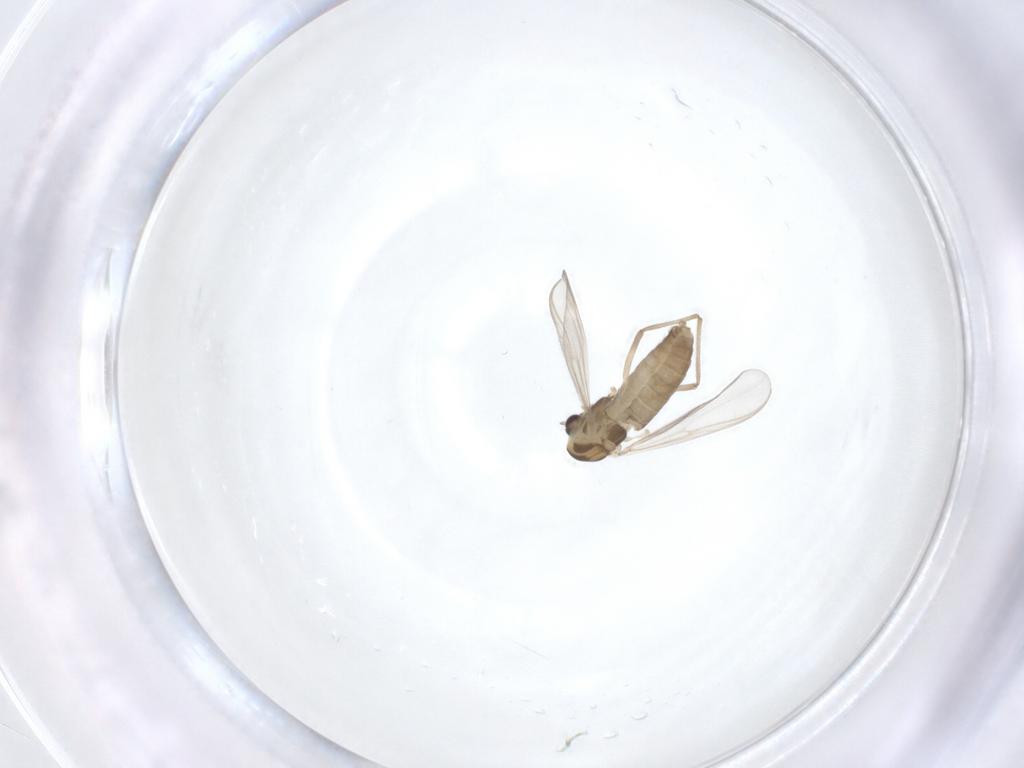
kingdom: Animalia
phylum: Arthropoda
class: Insecta
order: Diptera
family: Chironomidae
